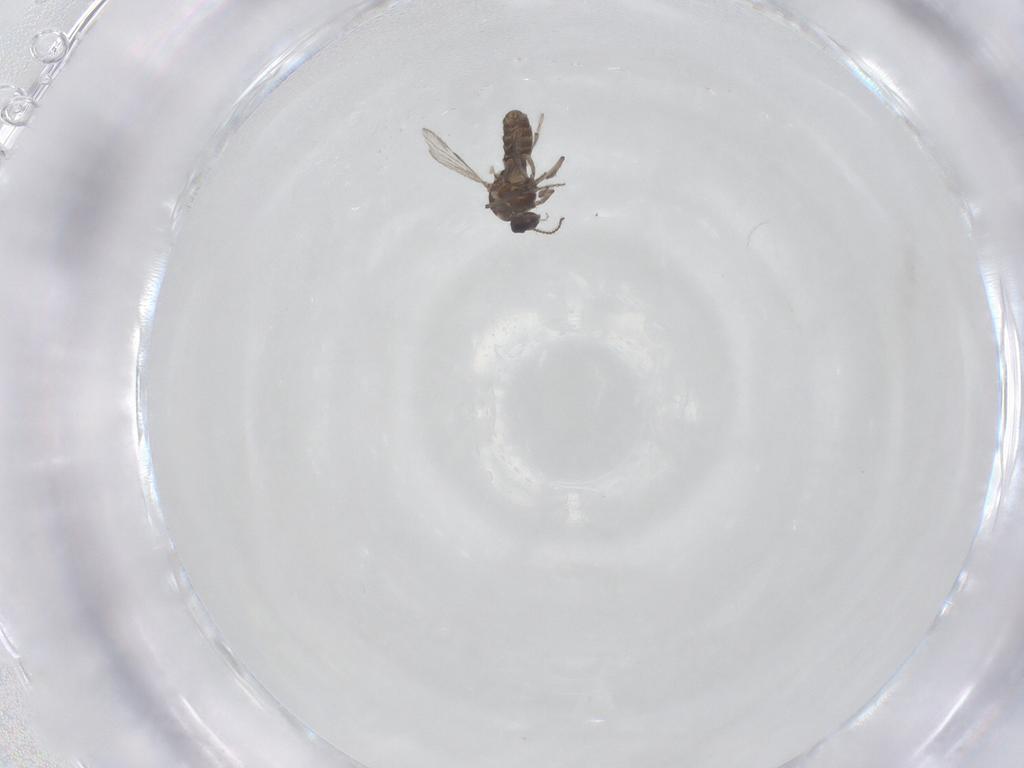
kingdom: Animalia
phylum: Arthropoda
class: Insecta
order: Diptera
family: Ceratopogonidae
